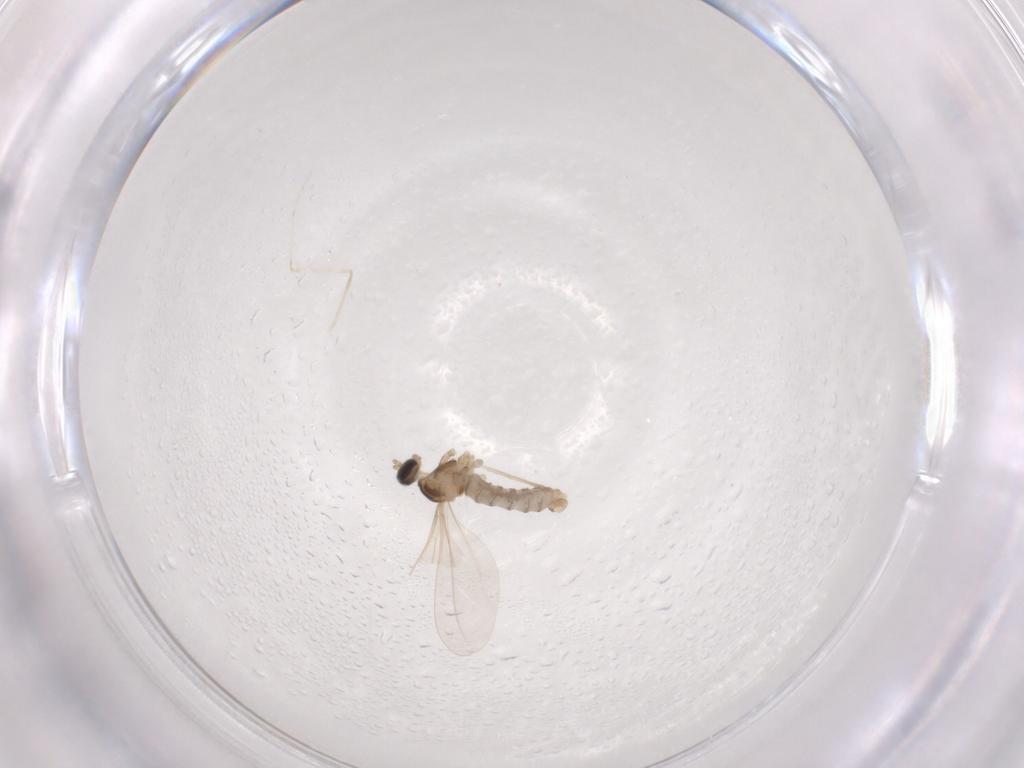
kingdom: Animalia
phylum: Arthropoda
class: Insecta
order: Diptera
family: Cecidomyiidae
